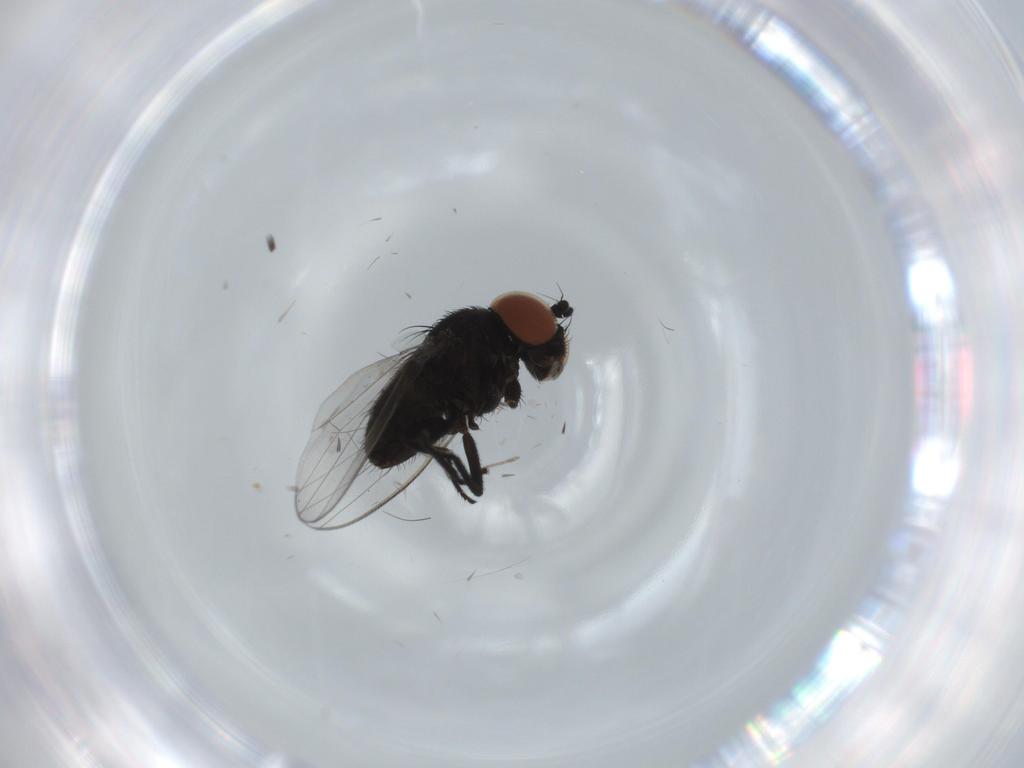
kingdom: Animalia
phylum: Arthropoda
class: Insecta
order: Diptera
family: Milichiidae
